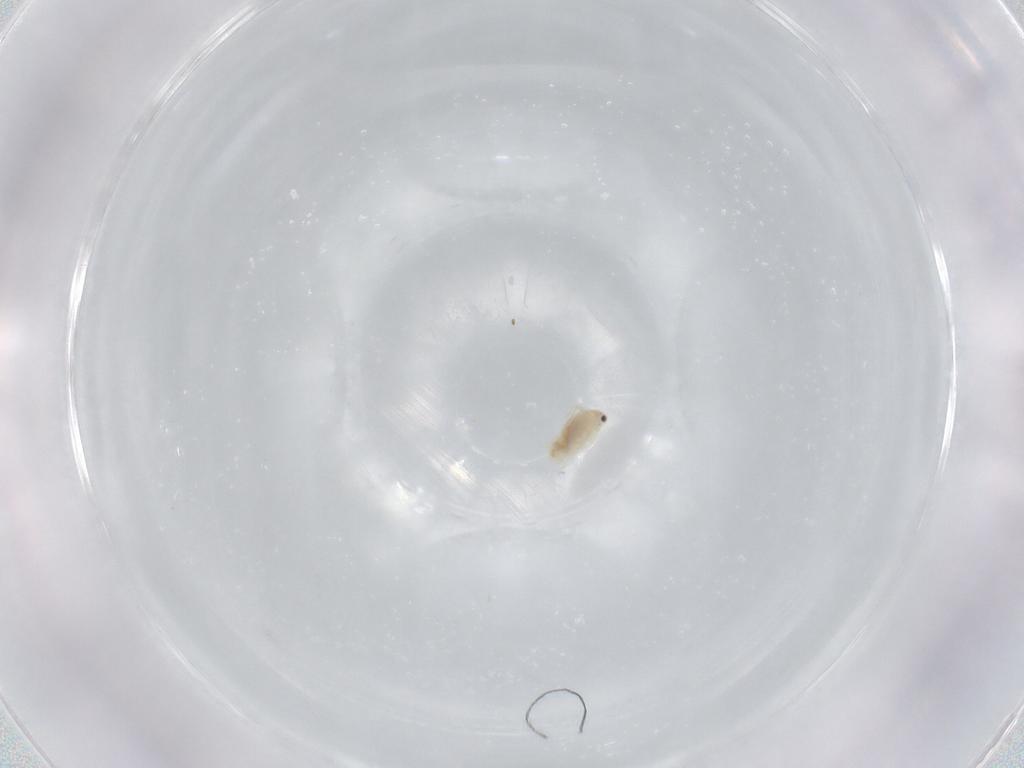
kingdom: Animalia
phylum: Arthropoda
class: Branchiopoda
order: Diplostraca
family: Daphniidae
